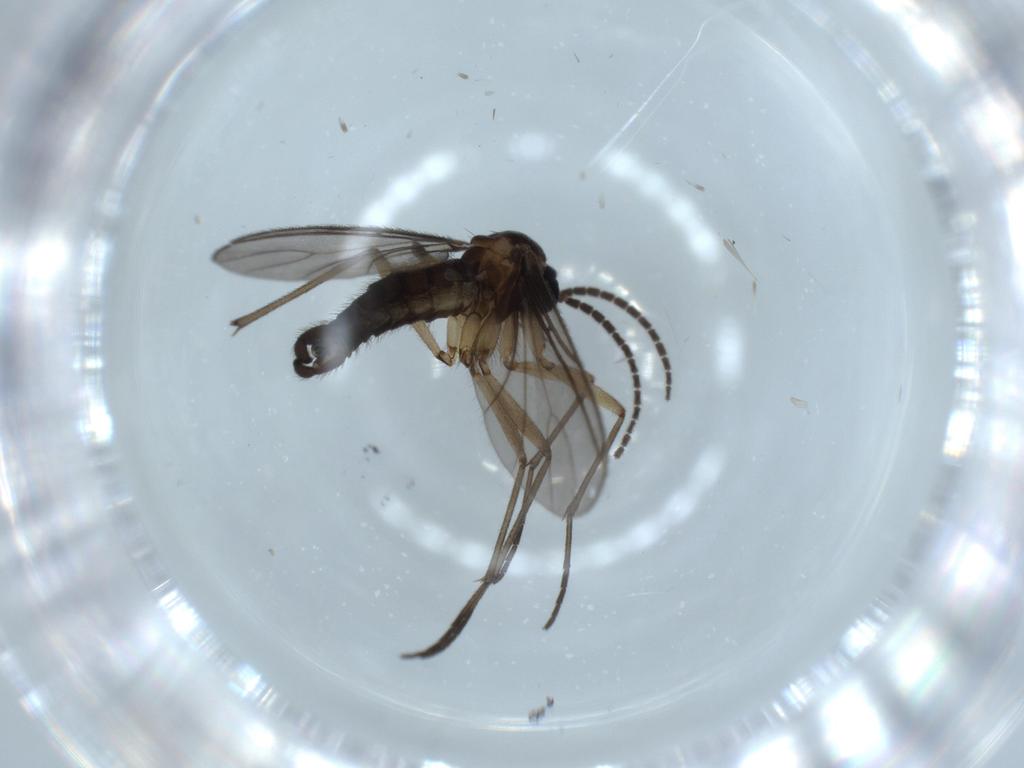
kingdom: Animalia
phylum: Arthropoda
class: Insecta
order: Diptera
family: Sciaridae
